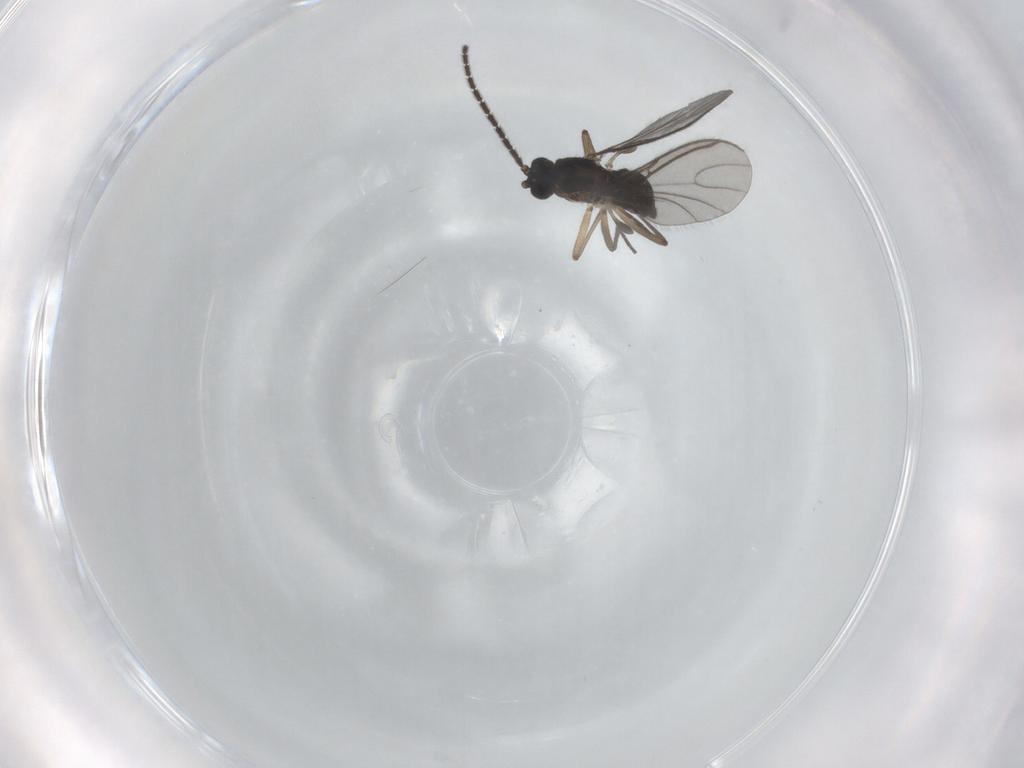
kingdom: Animalia
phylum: Arthropoda
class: Insecta
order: Diptera
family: Sciaridae
